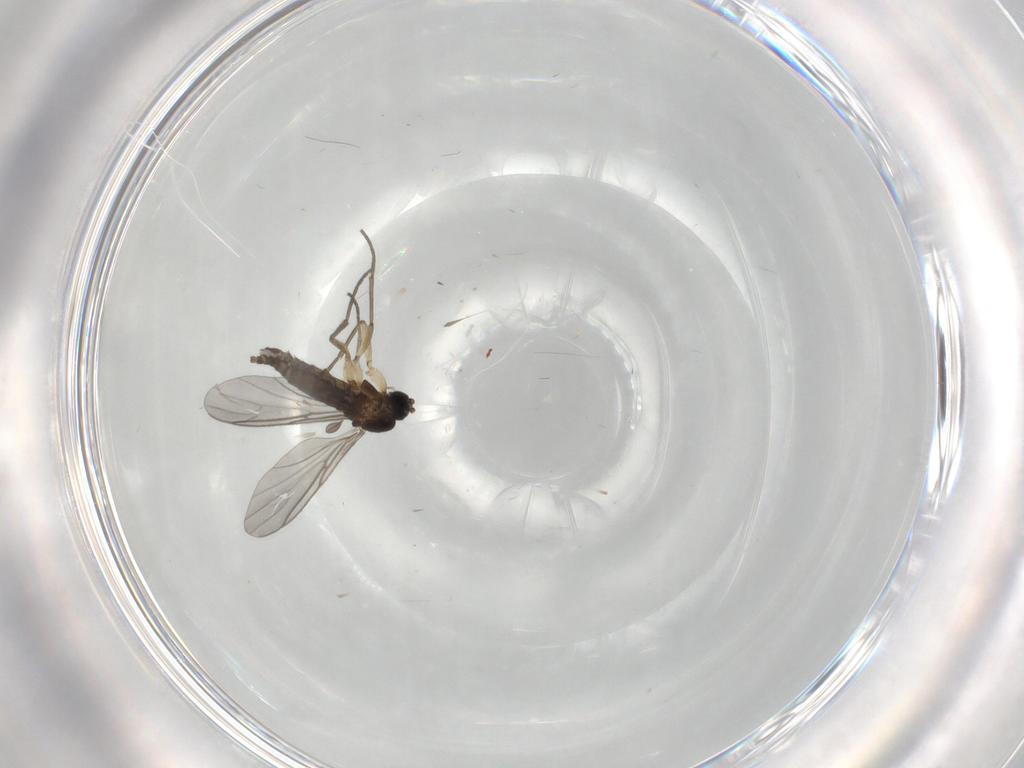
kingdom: Animalia
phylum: Arthropoda
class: Insecta
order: Diptera
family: Sciaridae
